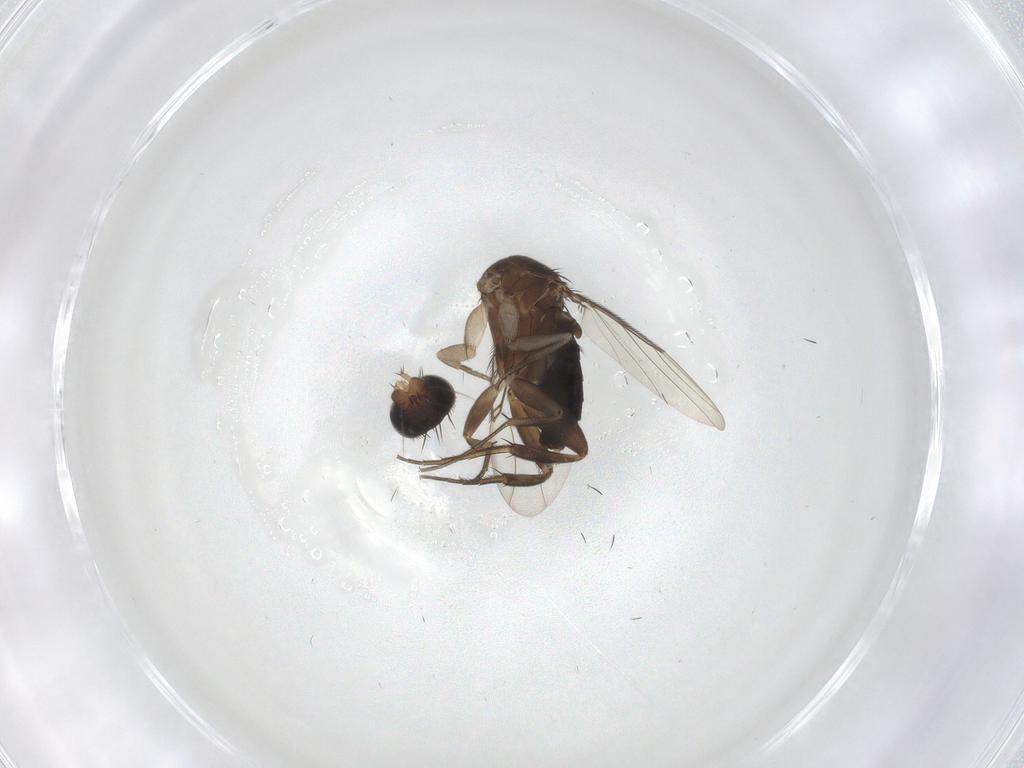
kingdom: Animalia
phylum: Arthropoda
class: Insecta
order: Diptera
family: Phoridae
